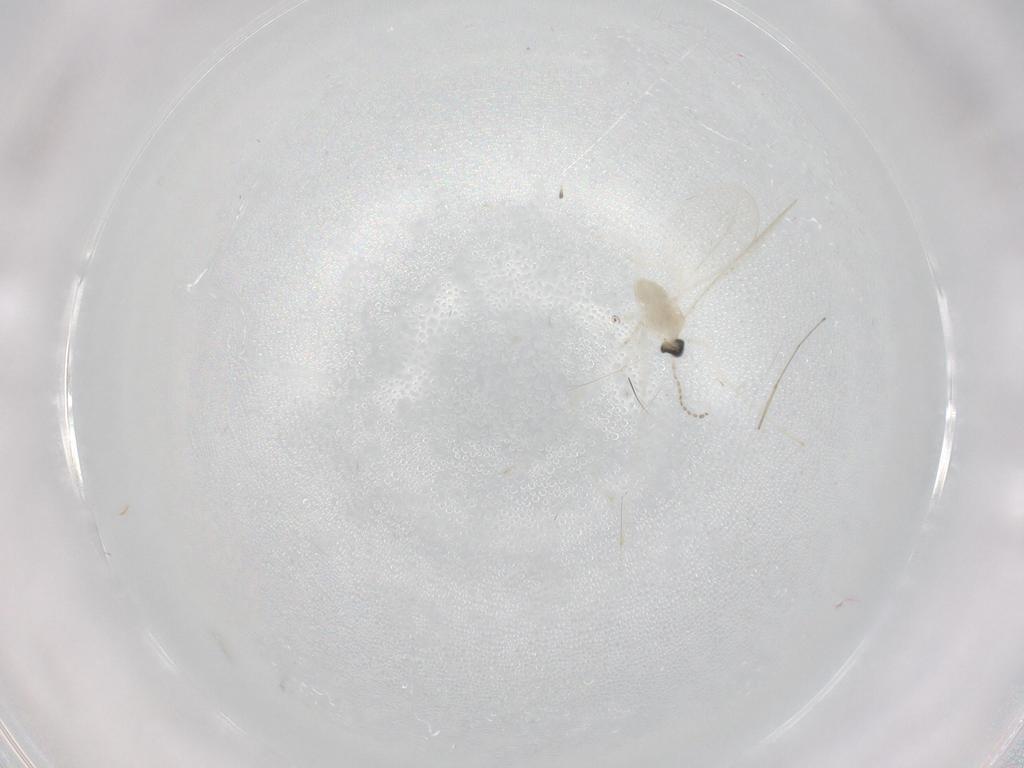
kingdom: Animalia
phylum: Arthropoda
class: Insecta
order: Diptera
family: Cecidomyiidae
